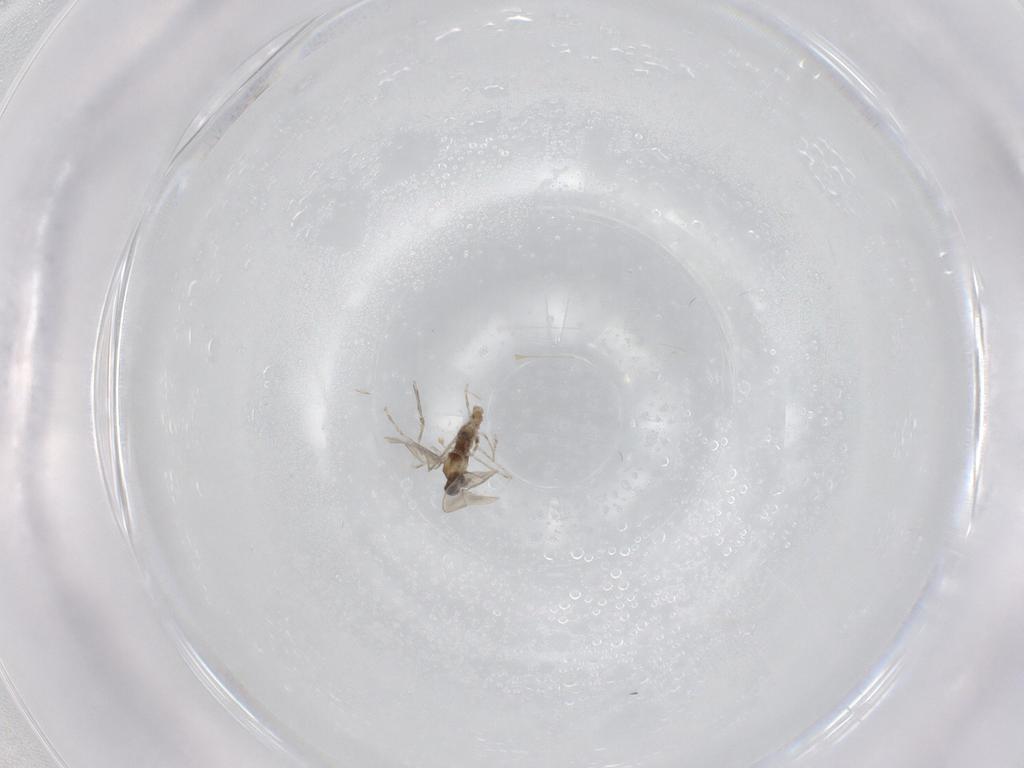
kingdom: Animalia
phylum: Arthropoda
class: Insecta
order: Diptera
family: Cecidomyiidae
